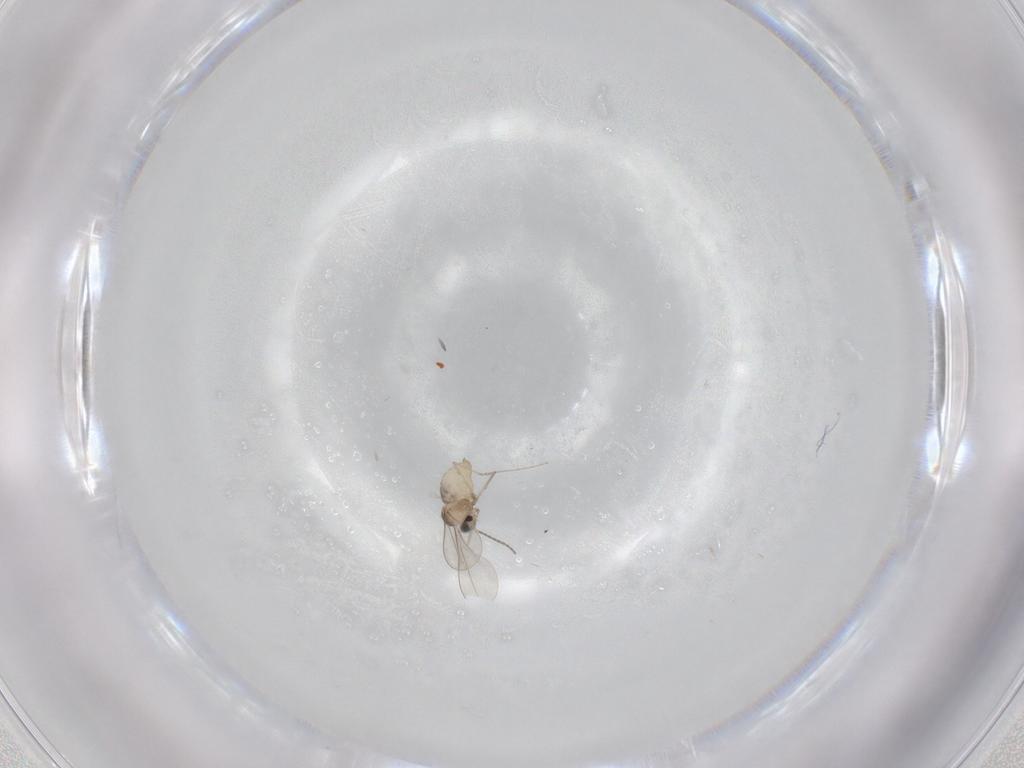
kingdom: Animalia
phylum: Arthropoda
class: Insecta
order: Diptera
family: Cecidomyiidae
